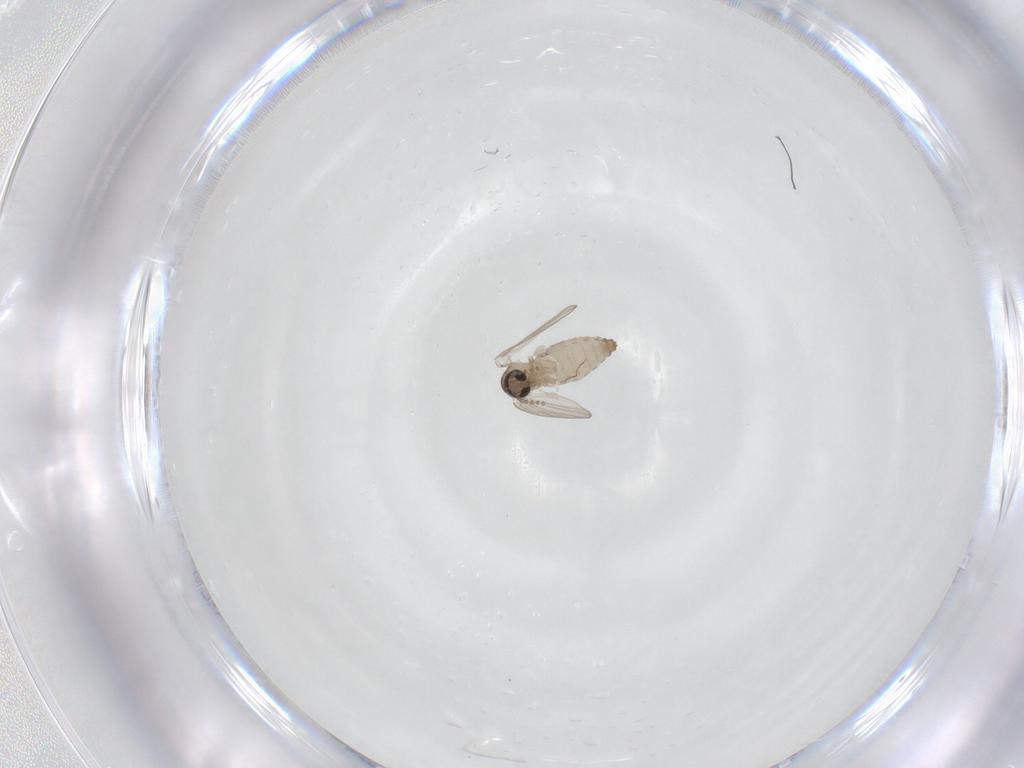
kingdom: Animalia
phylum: Arthropoda
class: Insecta
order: Diptera
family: Psychodidae
